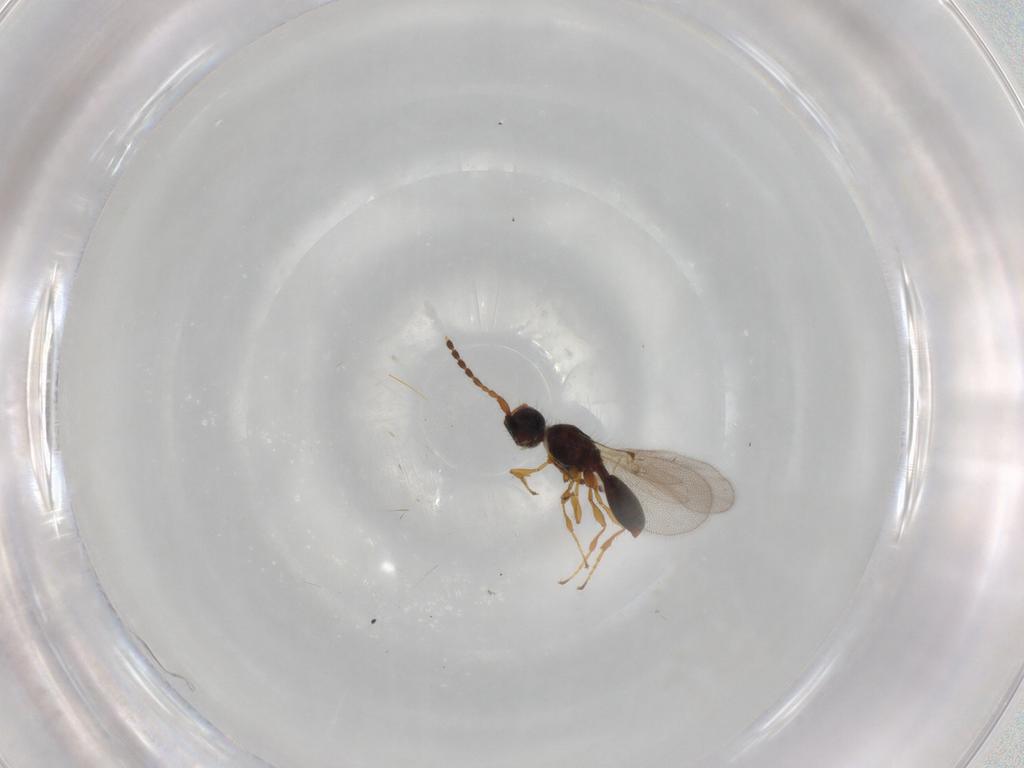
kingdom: Animalia
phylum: Arthropoda
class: Insecta
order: Hymenoptera
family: Diapriidae
